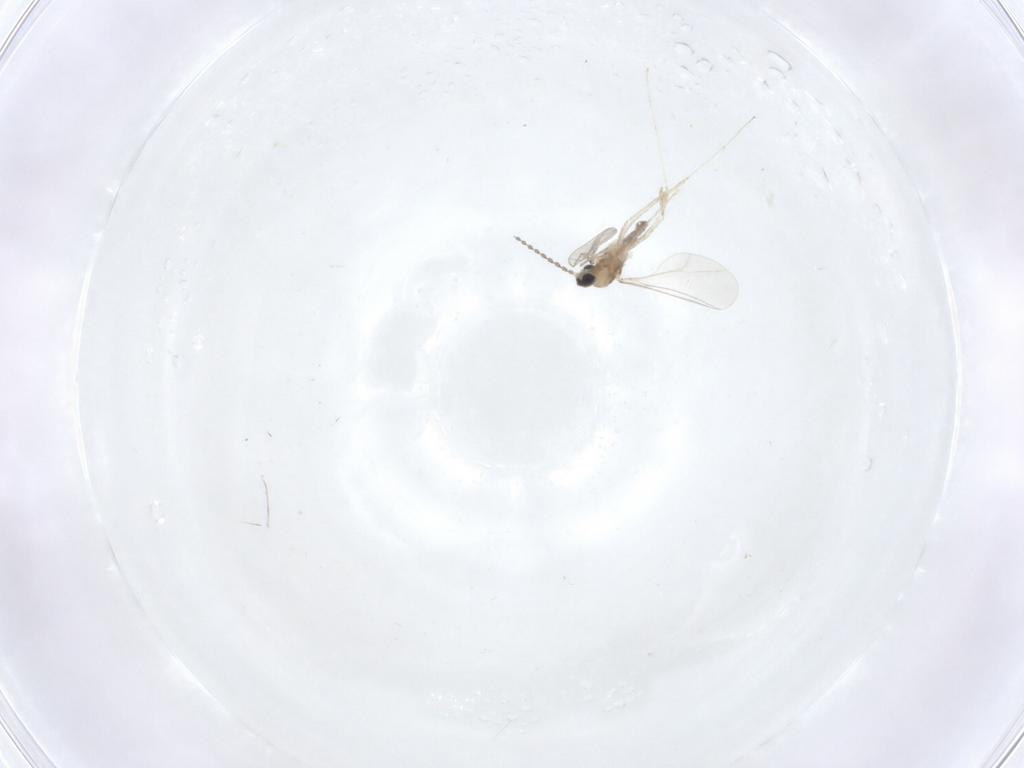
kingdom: Animalia
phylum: Arthropoda
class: Insecta
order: Diptera
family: Cecidomyiidae
